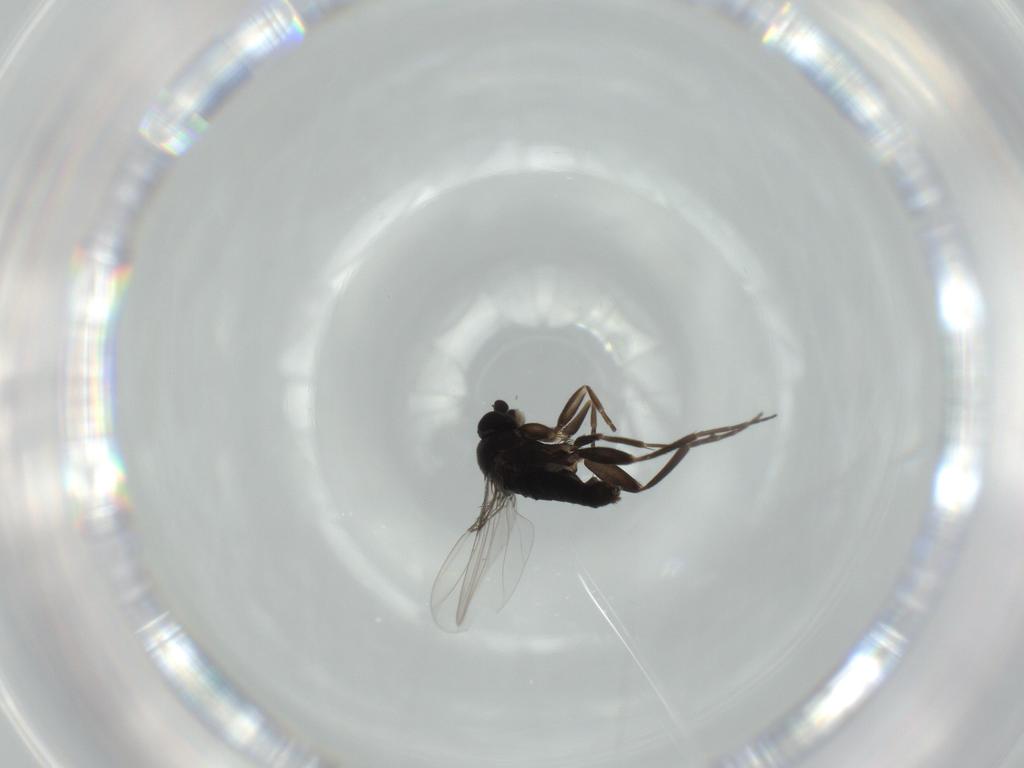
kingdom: Animalia
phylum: Arthropoda
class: Insecta
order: Diptera
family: Phoridae
